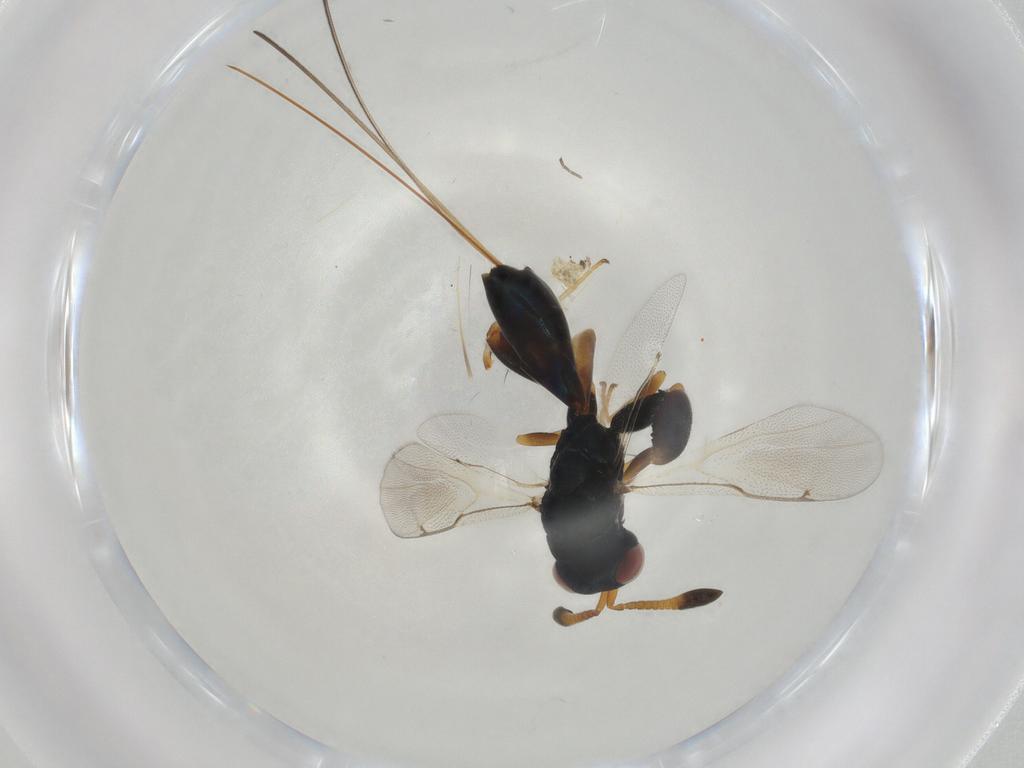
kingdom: Animalia
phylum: Arthropoda
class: Insecta
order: Hymenoptera
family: Torymidae
